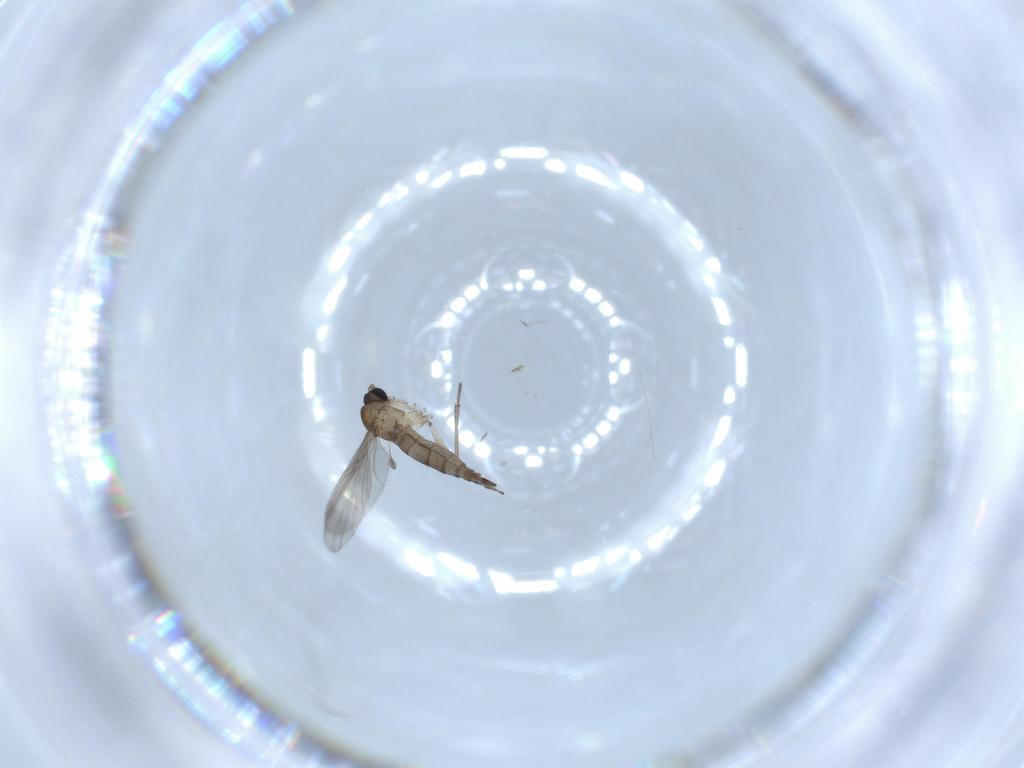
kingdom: Animalia
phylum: Arthropoda
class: Insecta
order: Diptera
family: Sciaridae
